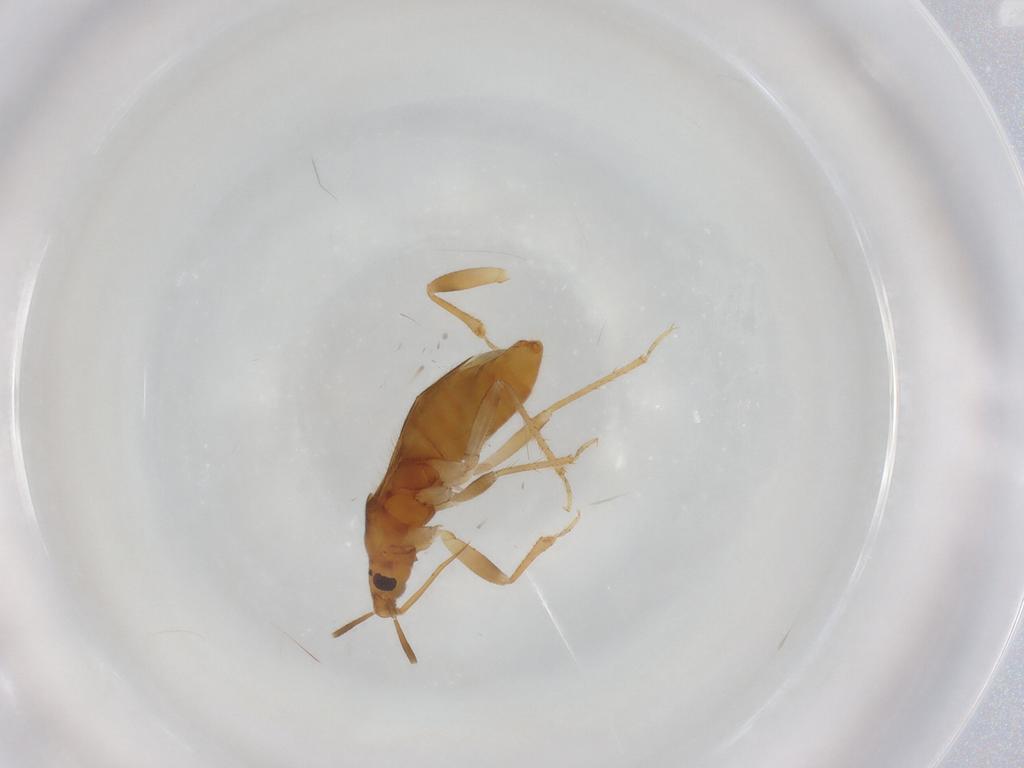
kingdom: Animalia
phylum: Arthropoda
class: Insecta
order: Hemiptera
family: Lasiochilidae
